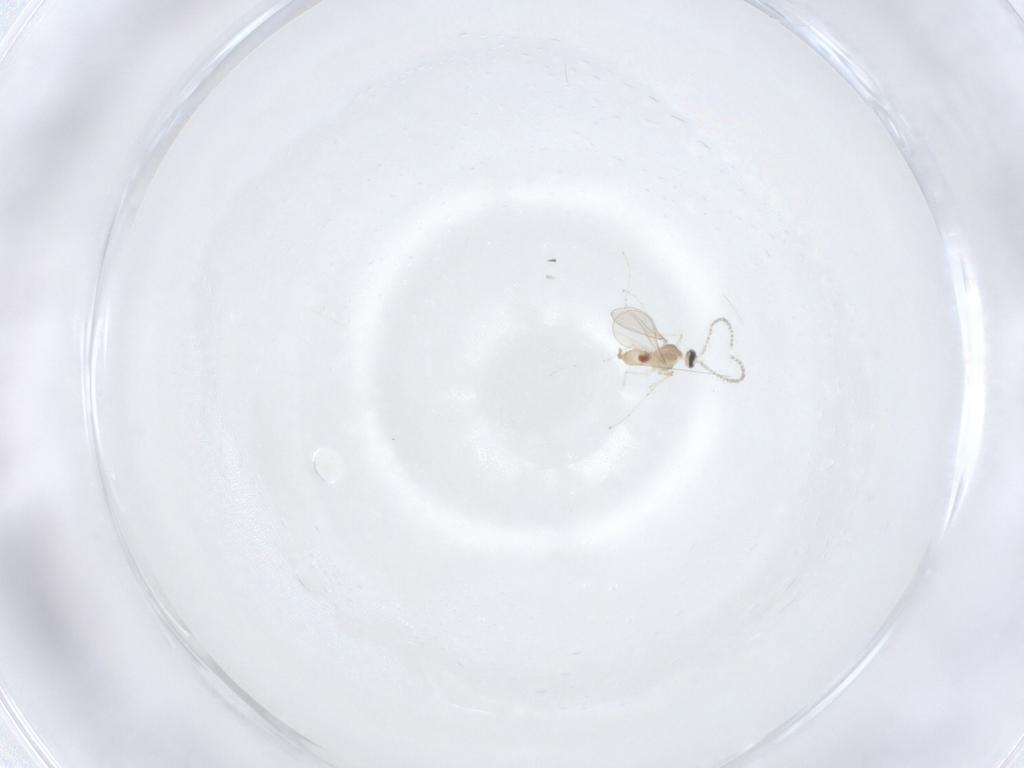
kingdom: Animalia
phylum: Arthropoda
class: Insecta
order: Diptera
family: Cecidomyiidae
